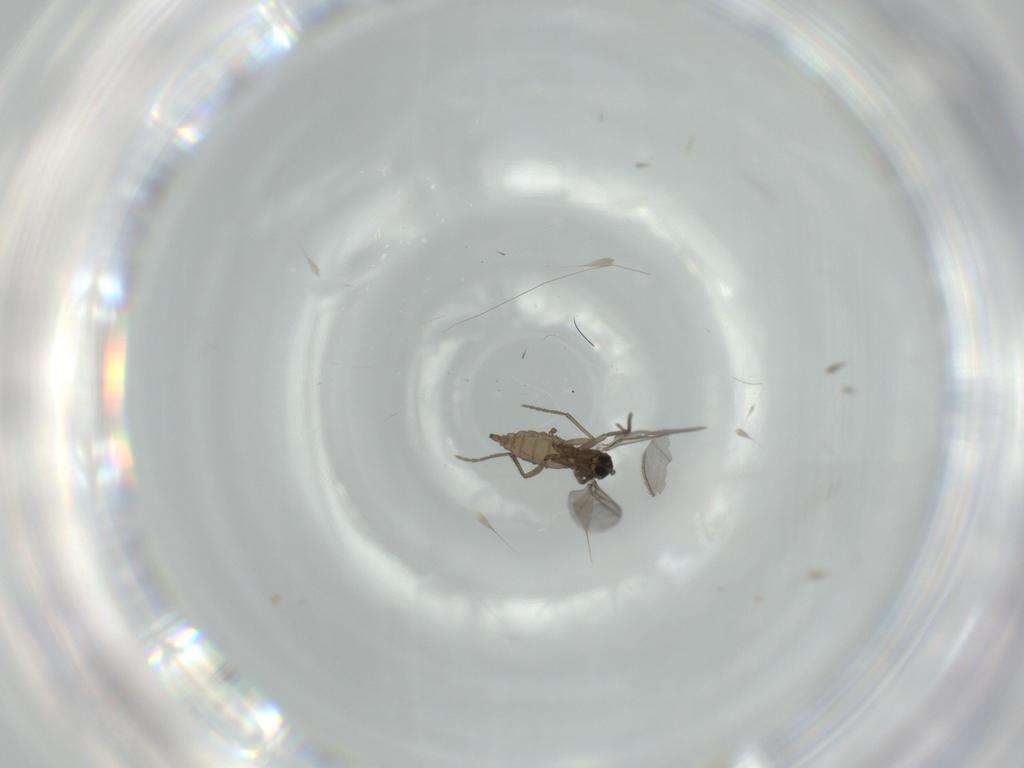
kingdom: Animalia
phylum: Arthropoda
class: Insecta
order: Diptera
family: Sciaridae
